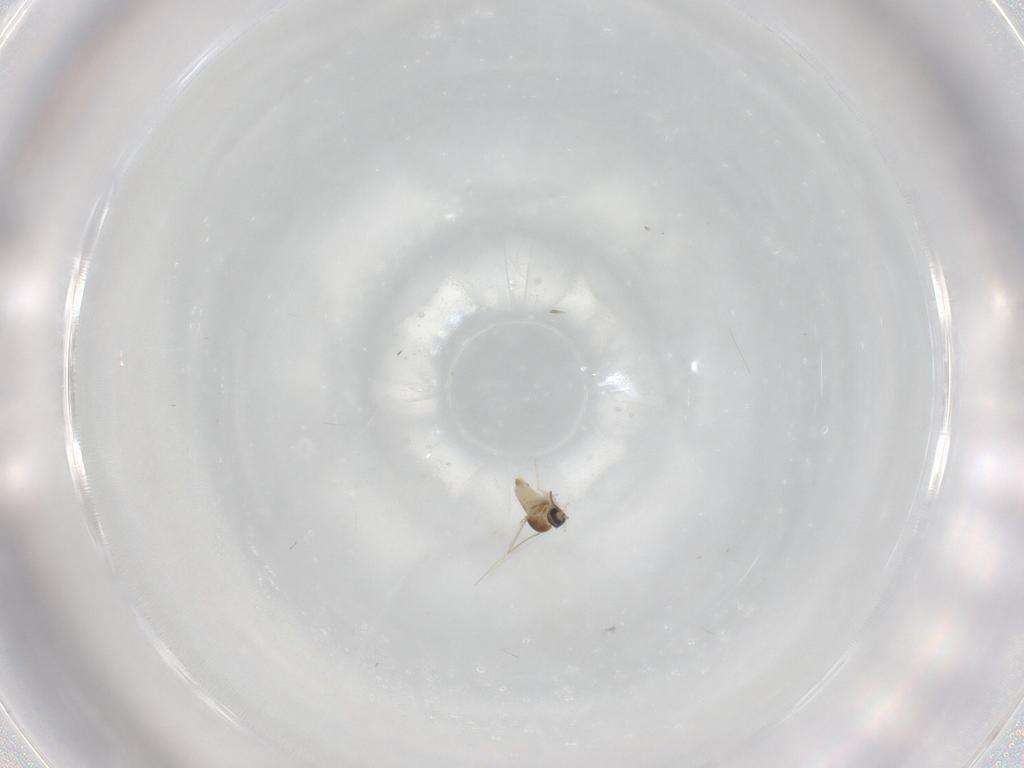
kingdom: Animalia
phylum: Arthropoda
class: Insecta
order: Diptera
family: Cecidomyiidae
